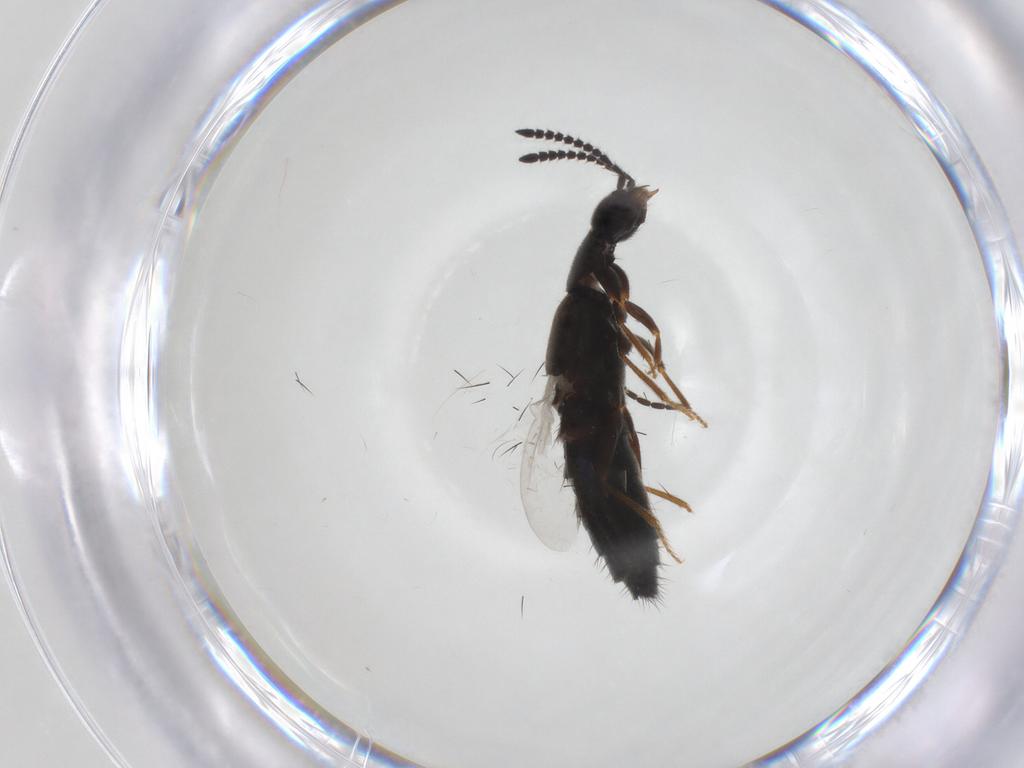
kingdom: Animalia
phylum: Arthropoda
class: Insecta
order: Coleoptera
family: Staphylinidae
